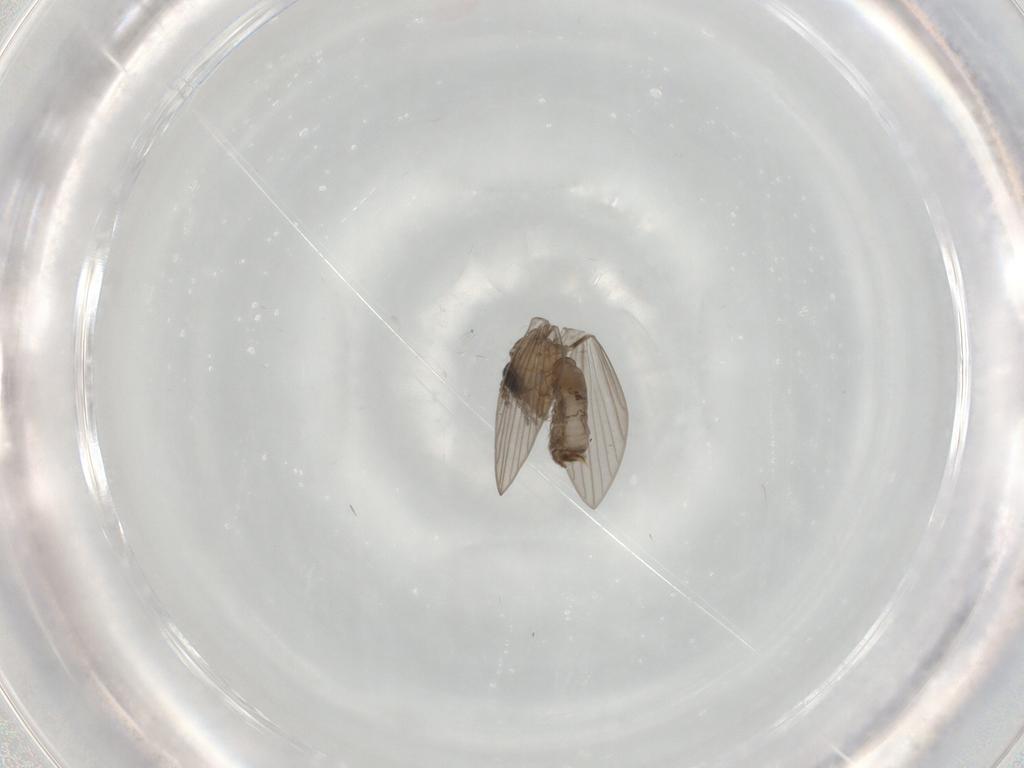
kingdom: Animalia
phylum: Arthropoda
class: Insecta
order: Diptera
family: Psychodidae
